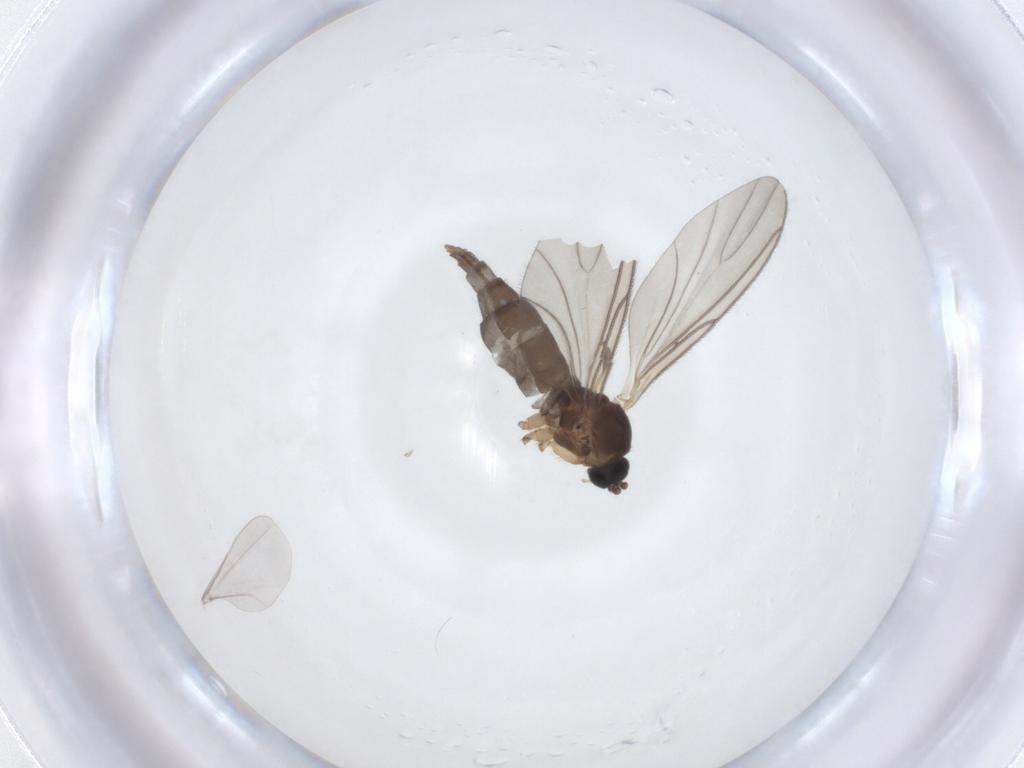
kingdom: Animalia
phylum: Arthropoda
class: Insecta
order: Diptera
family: Sciaridae
